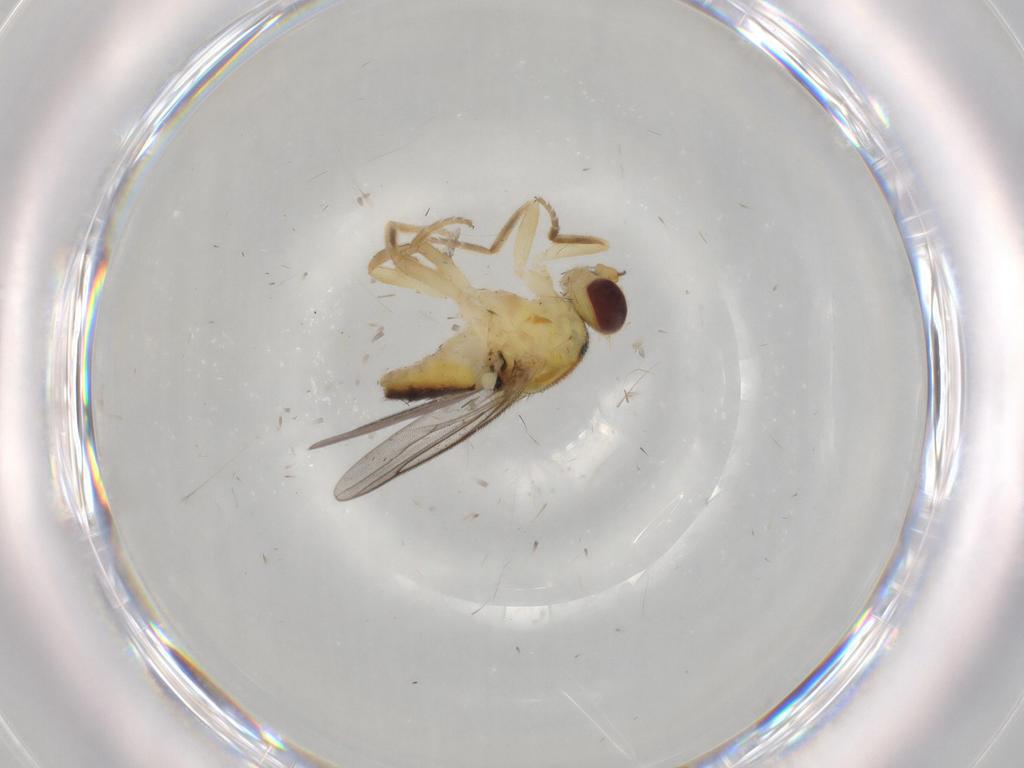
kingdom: Animalia
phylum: Arthropoda
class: Insecta
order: Diptera
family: Chloropidae
